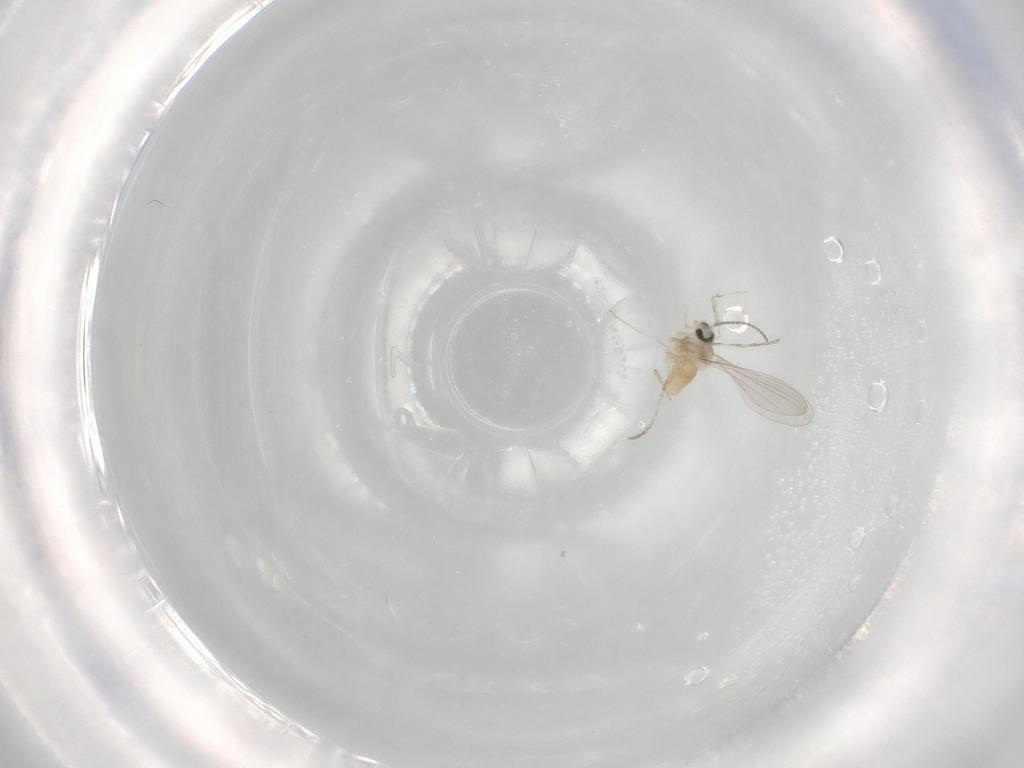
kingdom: Animalia
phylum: Arthropoda
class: Insecta
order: Diptera
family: Cecidomyiidae
